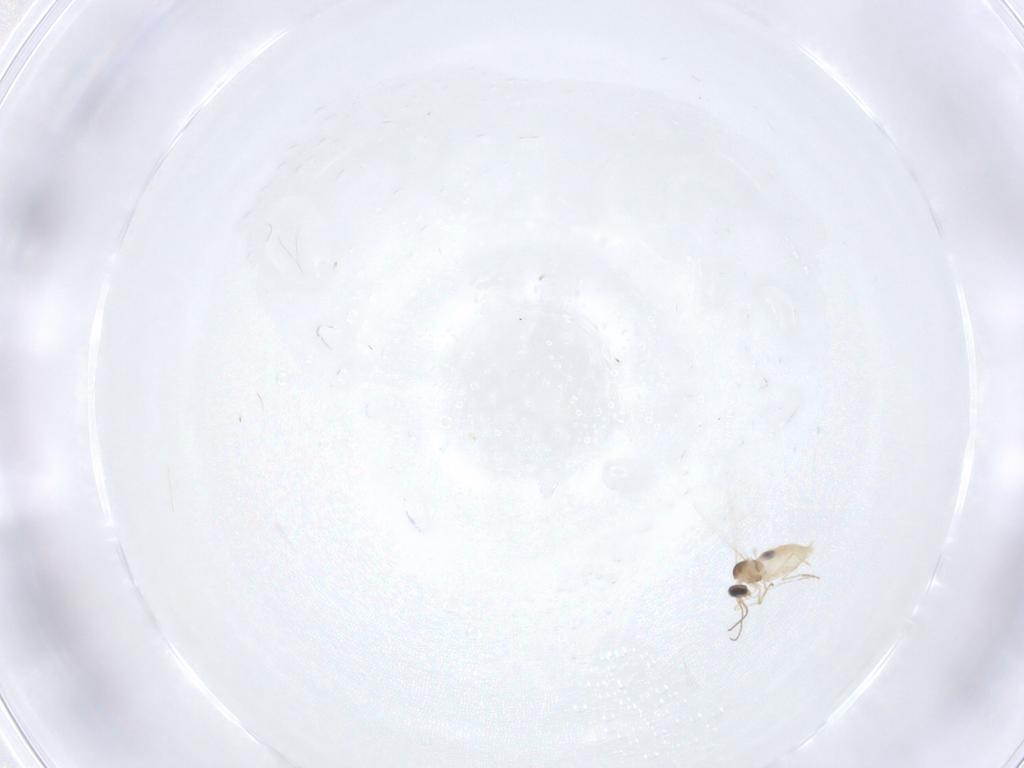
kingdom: Animalia
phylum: Arthropoda
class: Insecta
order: Diptera
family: Cecidomyiidae
